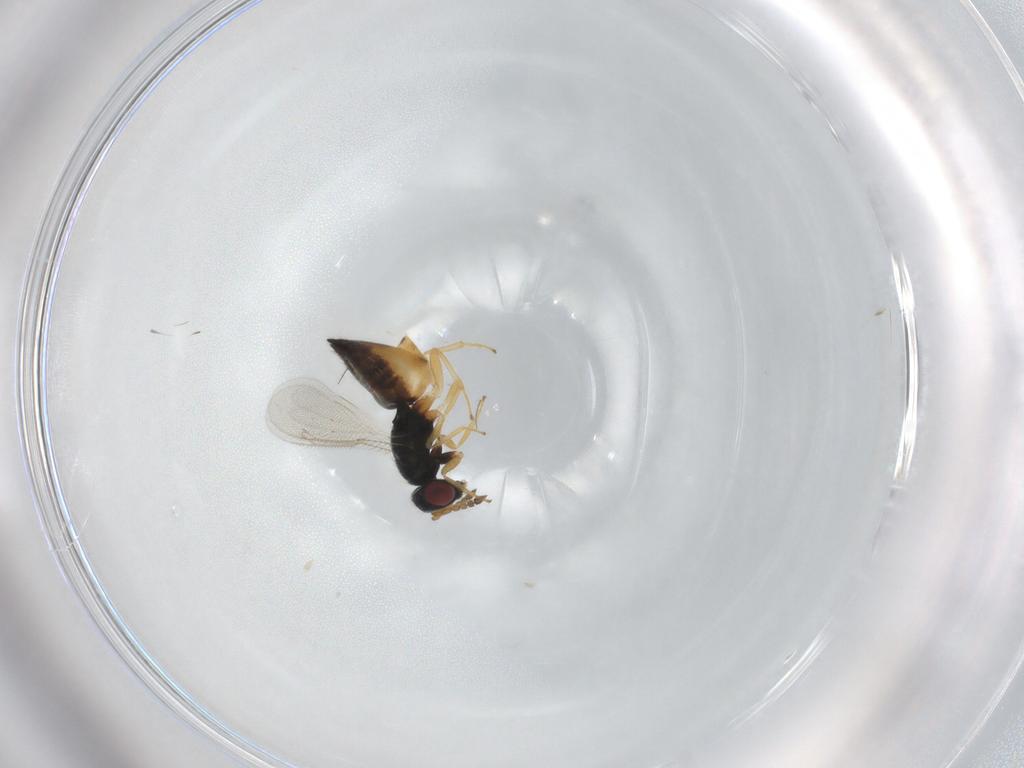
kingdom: Animalia
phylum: Arthropoda
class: Insecta
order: Hymenoptera
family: Eulophidae
